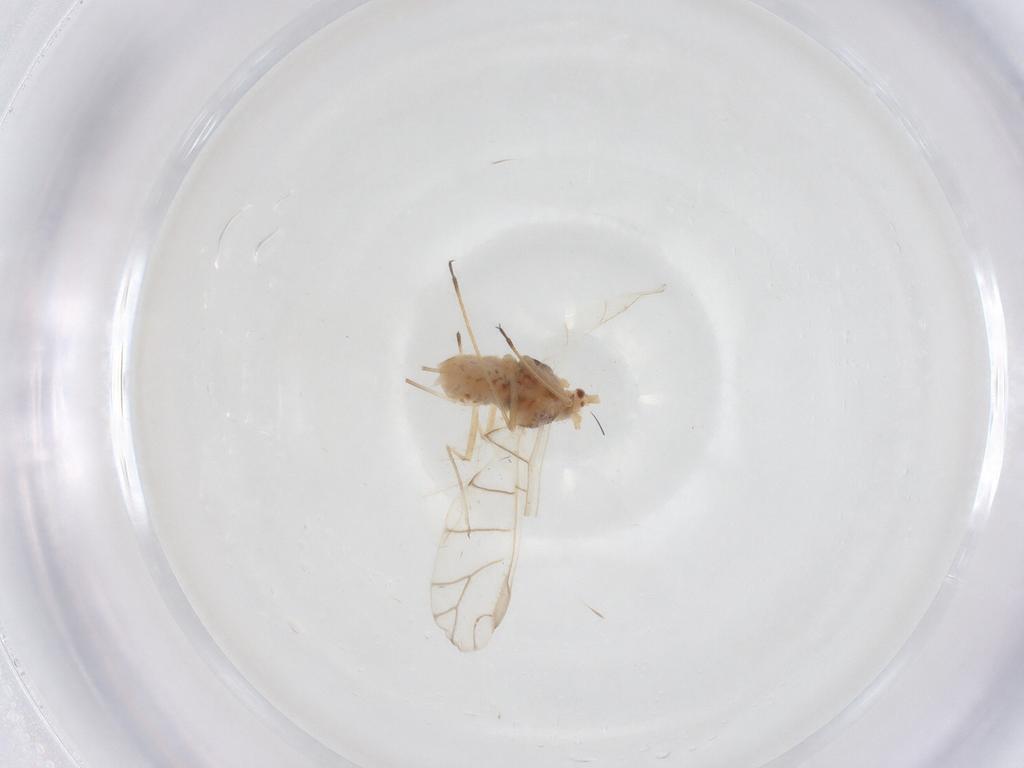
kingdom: Animalia
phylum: Arthropoda
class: Insecta
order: Hemiptera
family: Aphididae
